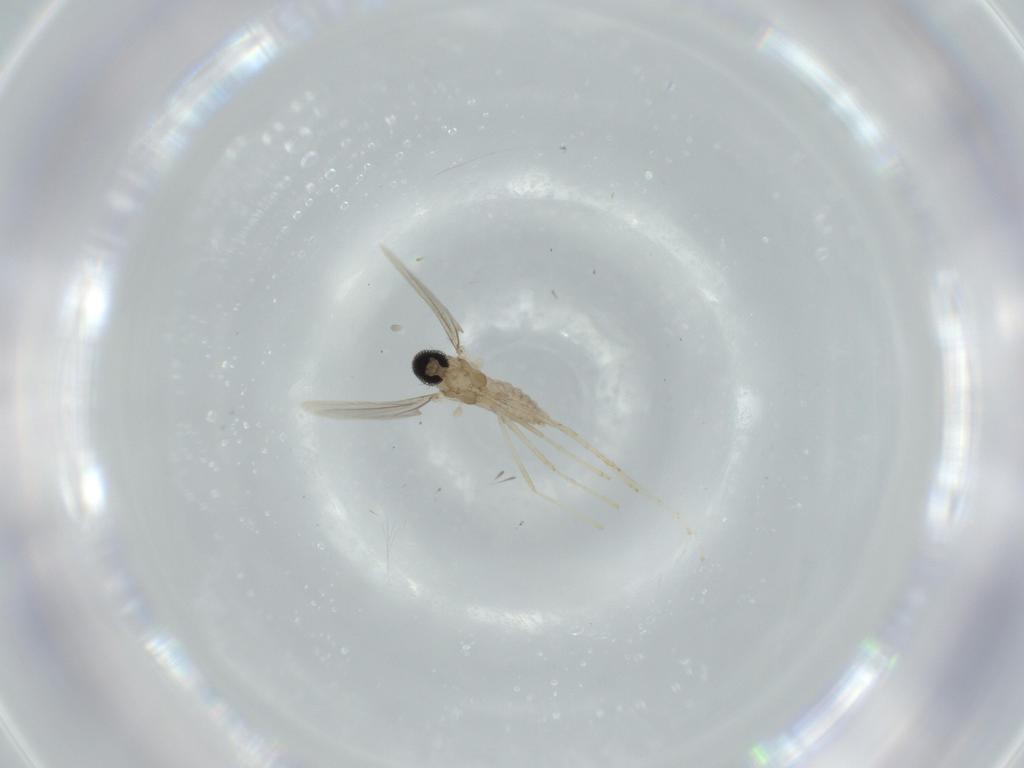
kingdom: Animalia
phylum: Arthropoda
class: Insecta
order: Diptera
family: Cecidomyiidae
